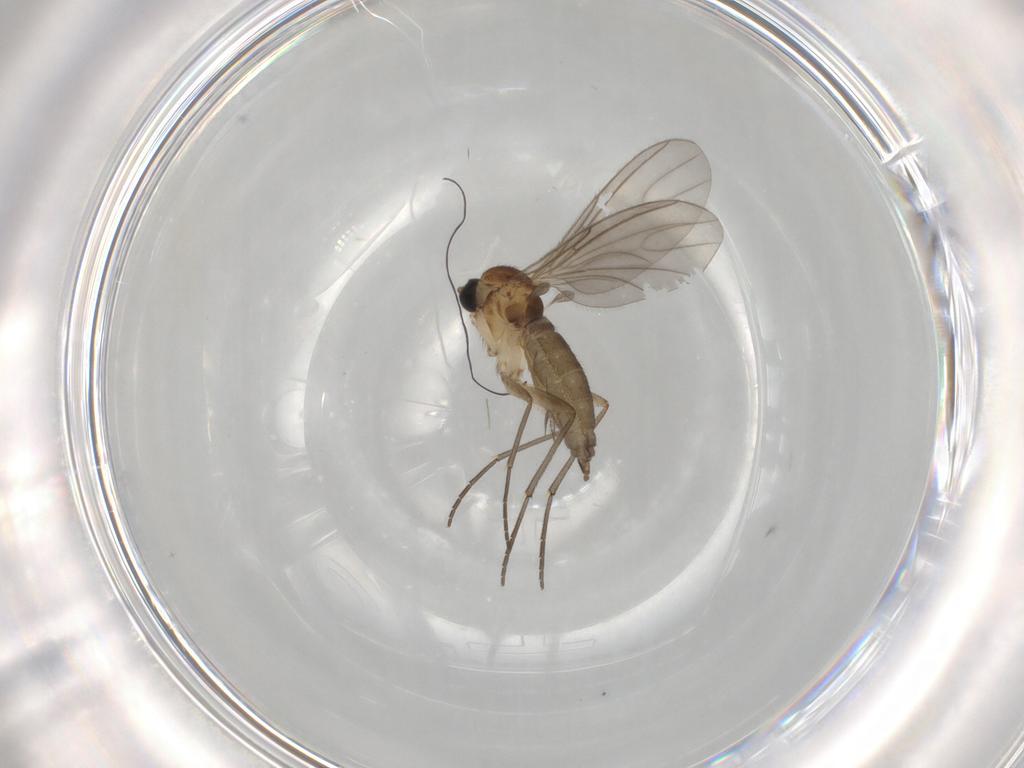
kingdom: Animalia
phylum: Arthropoda
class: Insecta
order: Diptera
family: Ceratopogonidae
